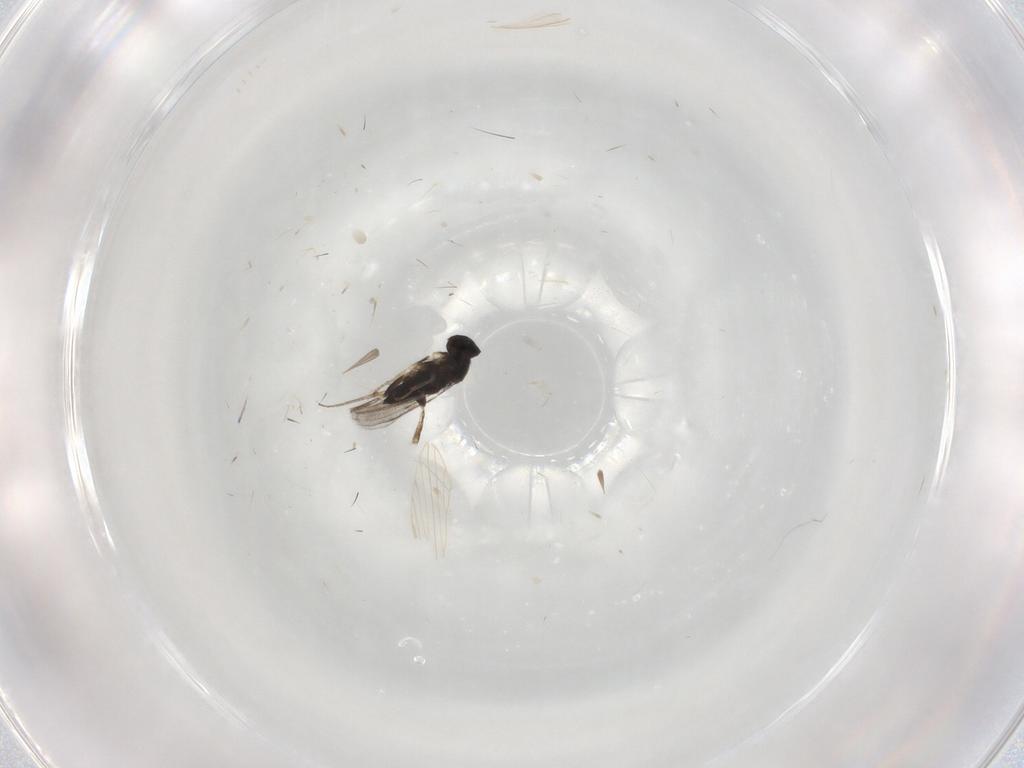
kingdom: Animalia
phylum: Arthropoda
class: Insecta
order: Hymenoptera
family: Eulophidae
